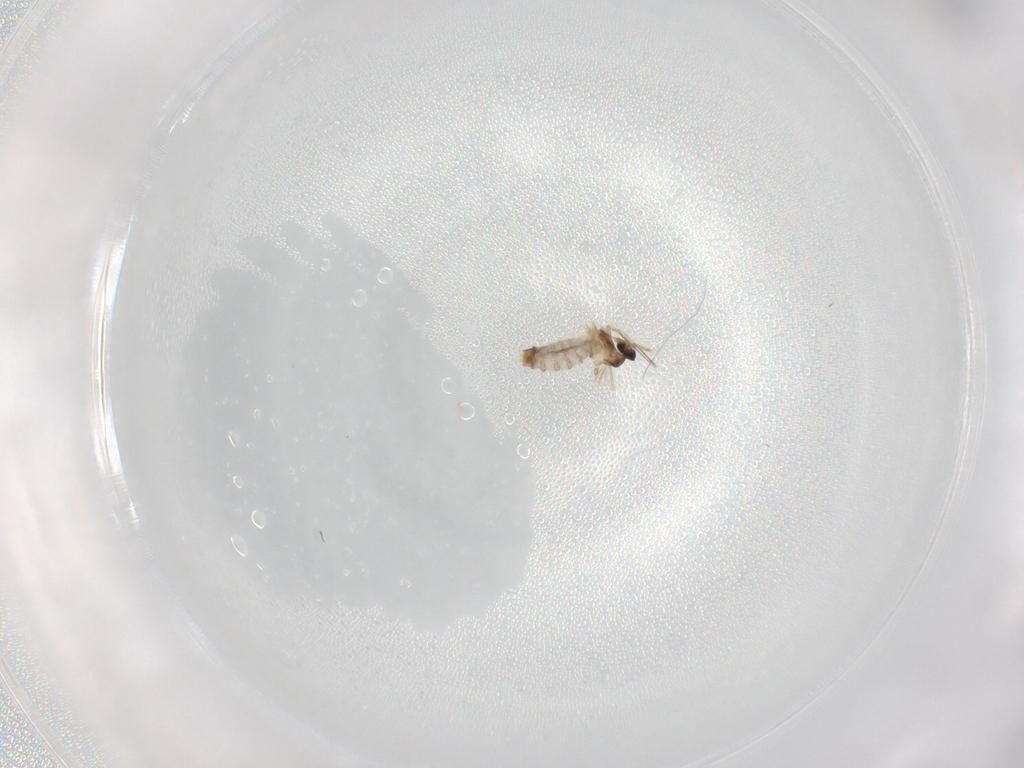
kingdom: Animalia
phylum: Arthropoda
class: Insecta
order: Diptera
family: Cecidomyiidae
